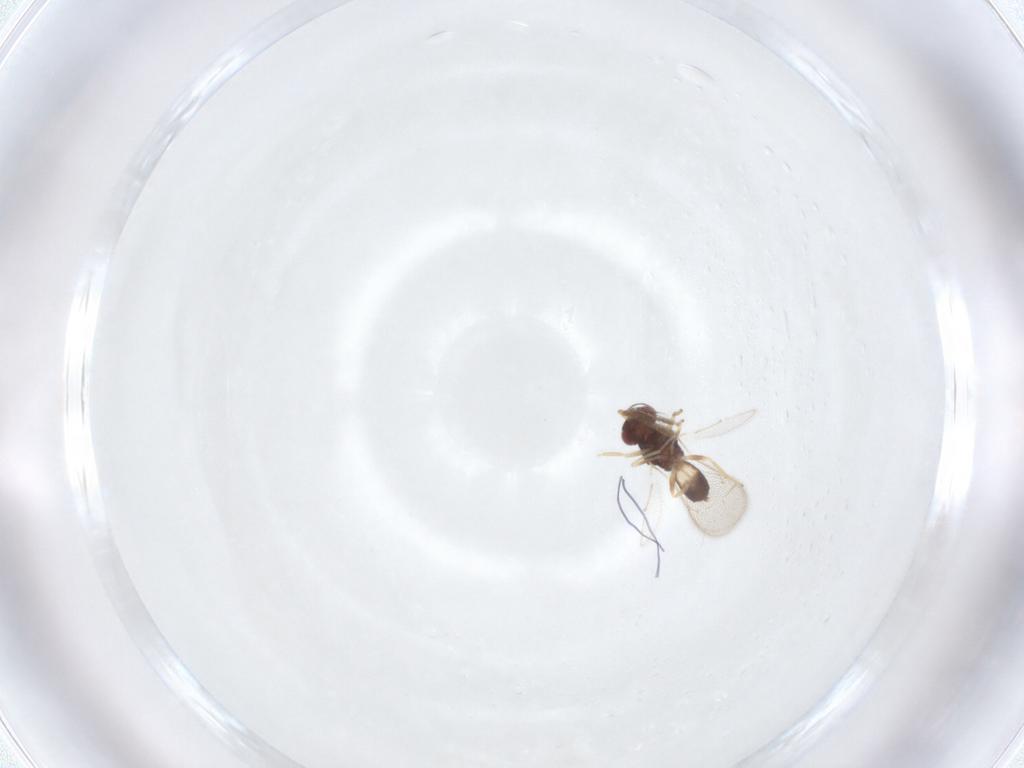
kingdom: Animalia
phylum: Arthropoda
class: Insecta
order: Hymenoptera
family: Eulophidae
